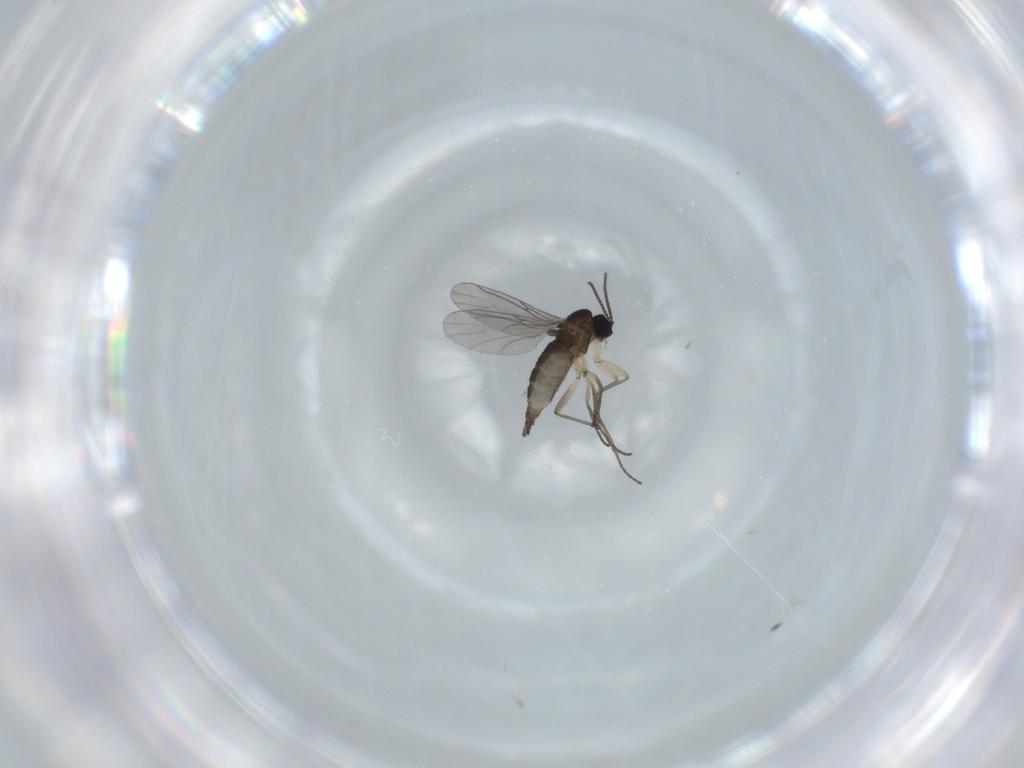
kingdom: Animalia
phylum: Arthropoda
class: Insecta
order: Diptera
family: Sciaridae
